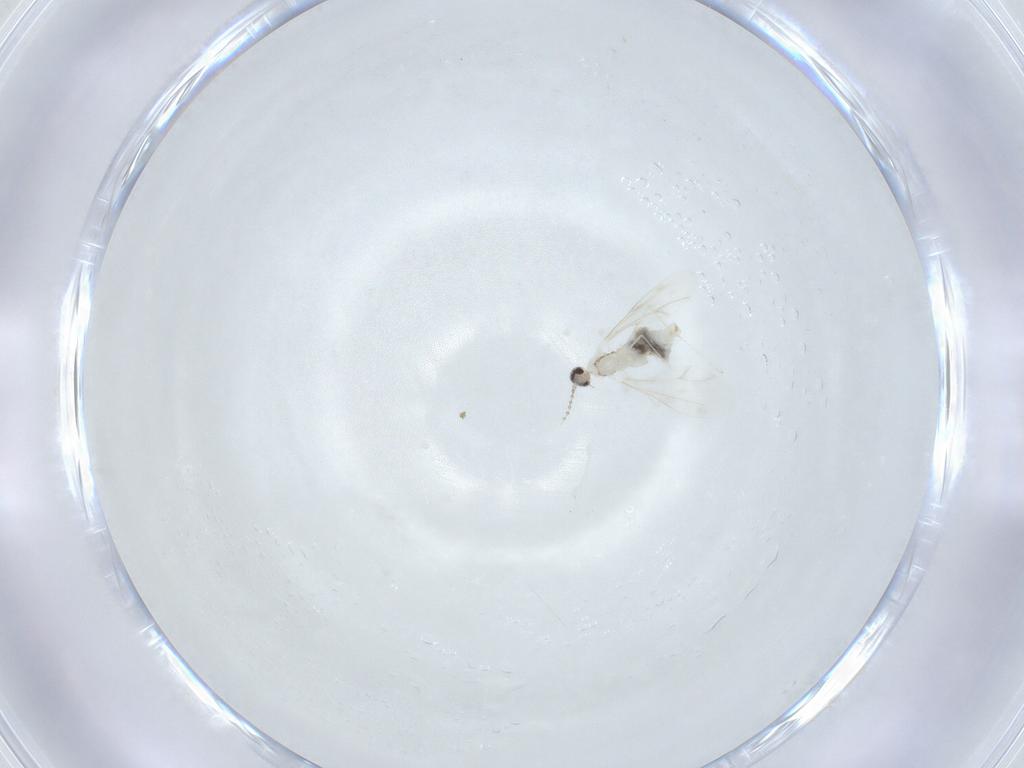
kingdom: Animalia
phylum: Arthropoda
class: Insecta
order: Diptera
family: Cecidomyiidae
